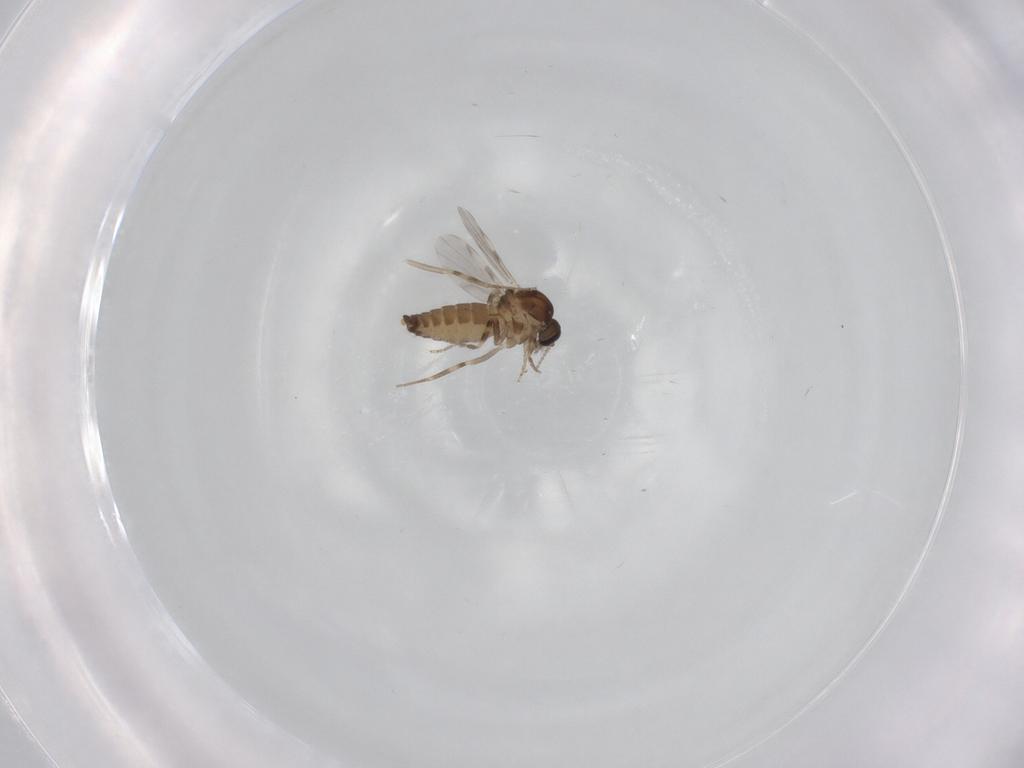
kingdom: Animalia
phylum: Arthropoda
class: Insecta
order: Diptera
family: Ceratopogonidae
